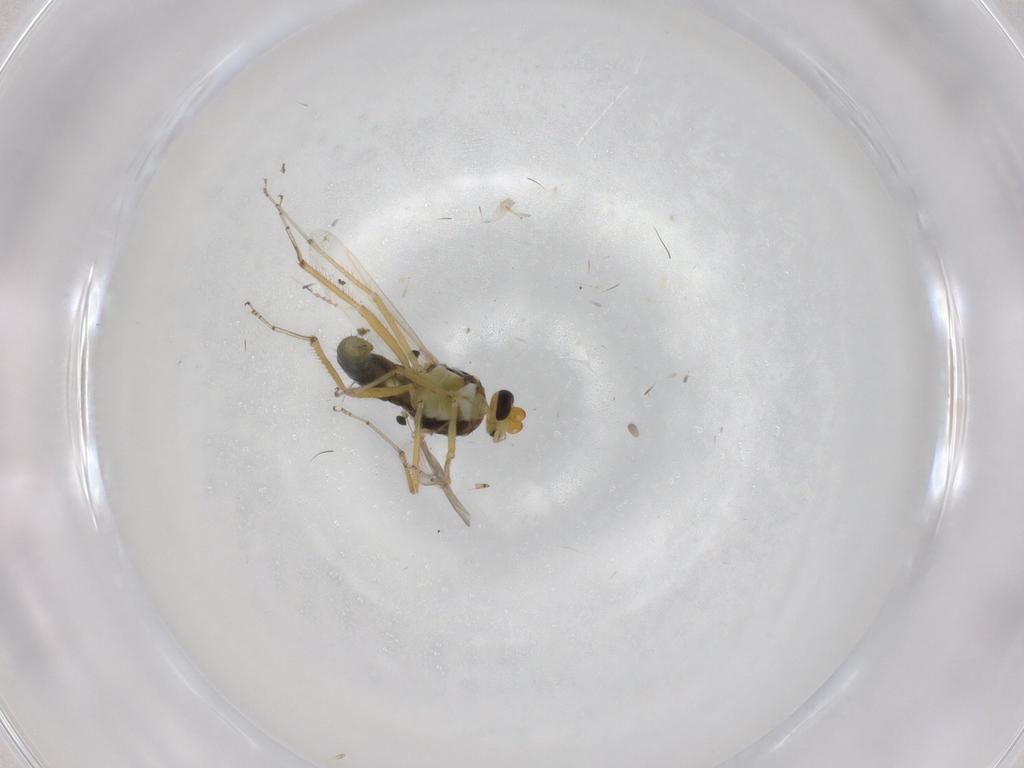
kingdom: Animalia
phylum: Arthropoda
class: Insecta
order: Diptera
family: Ceratopogonidae
